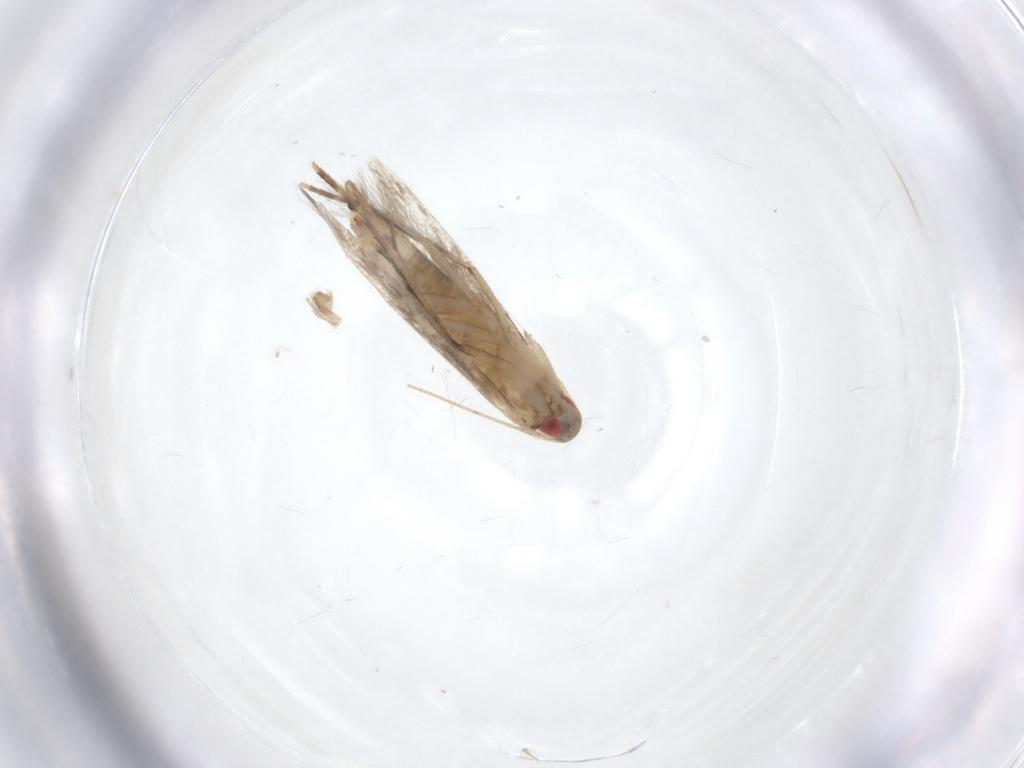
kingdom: Animalia
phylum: Arthropoda
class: Insecta
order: Lepidoptera
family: Cosmopterigidae
